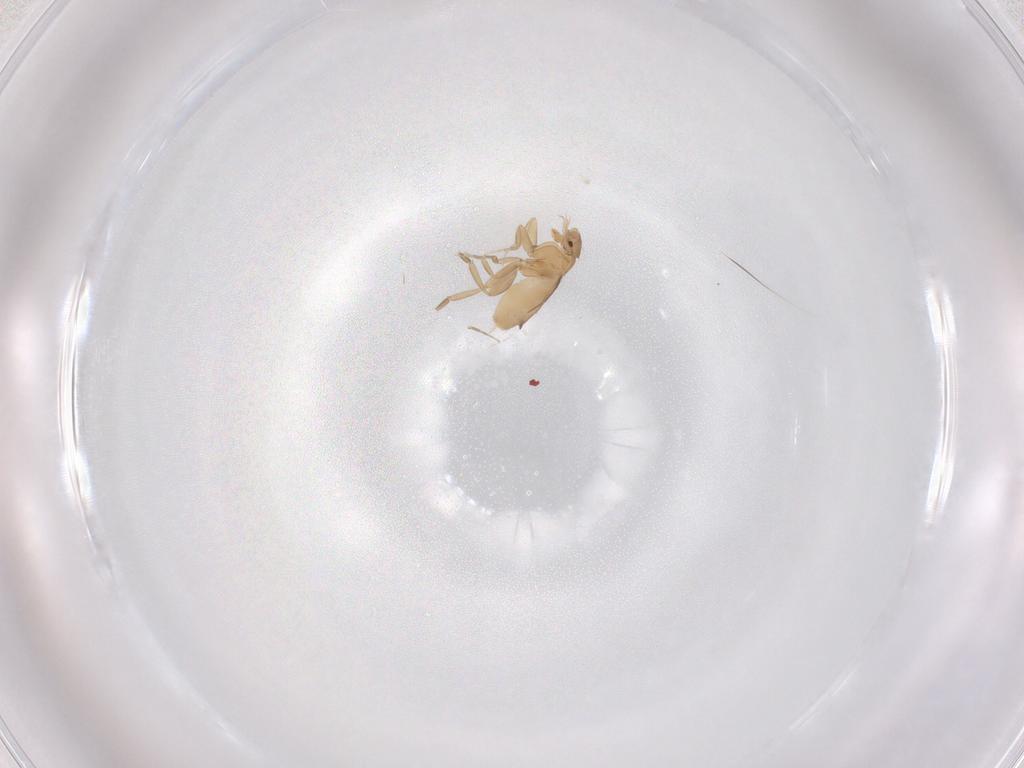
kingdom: Animalia
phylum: Arthropoda
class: Insecta
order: Diptera
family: Phoridae
